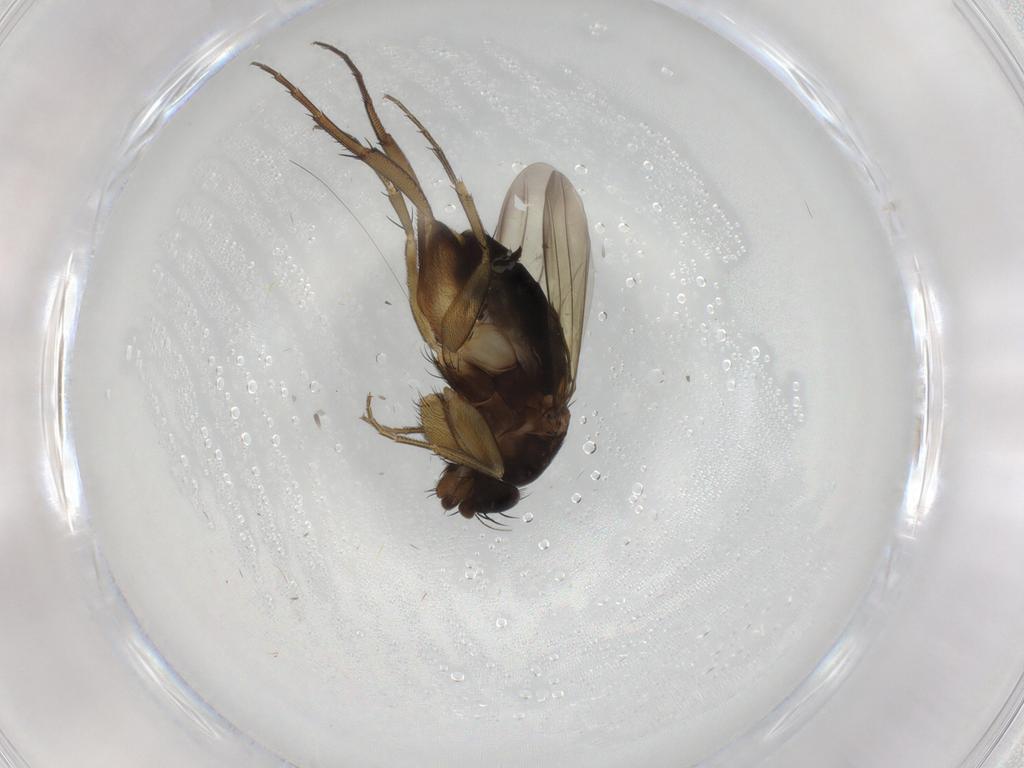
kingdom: Animalia
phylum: Arthropoda
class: Insecta
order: Diptera
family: Phoridae
